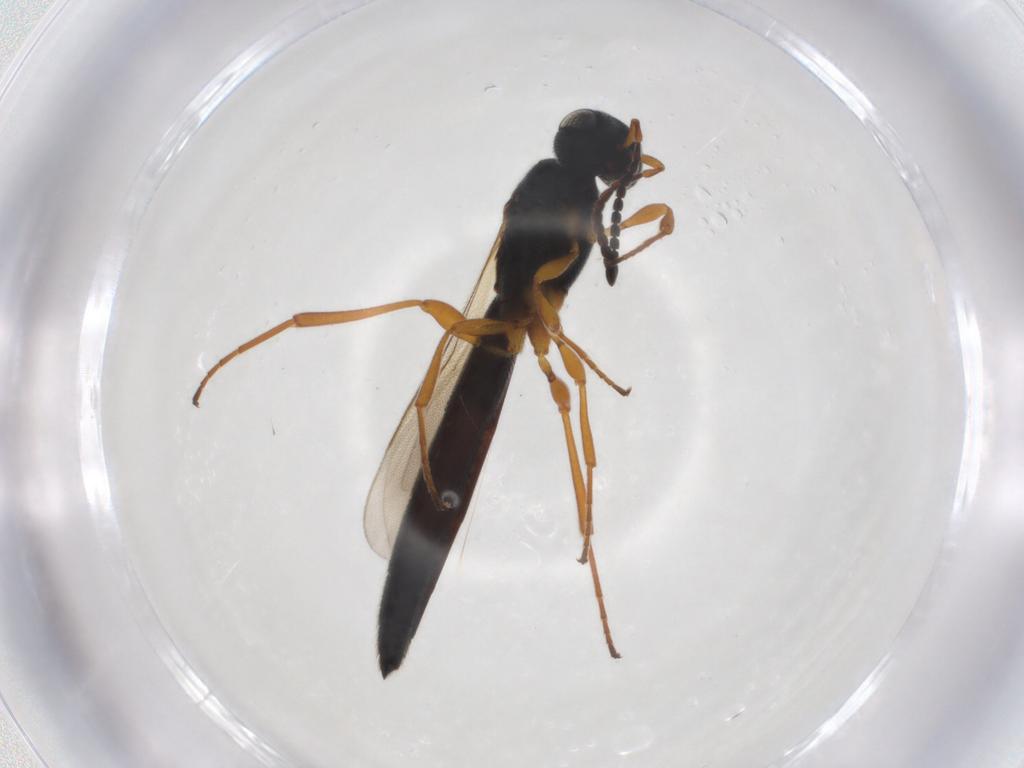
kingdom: Animalia
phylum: Arthropoda
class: Insecta
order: Hymenoptera
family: Scelionidae
